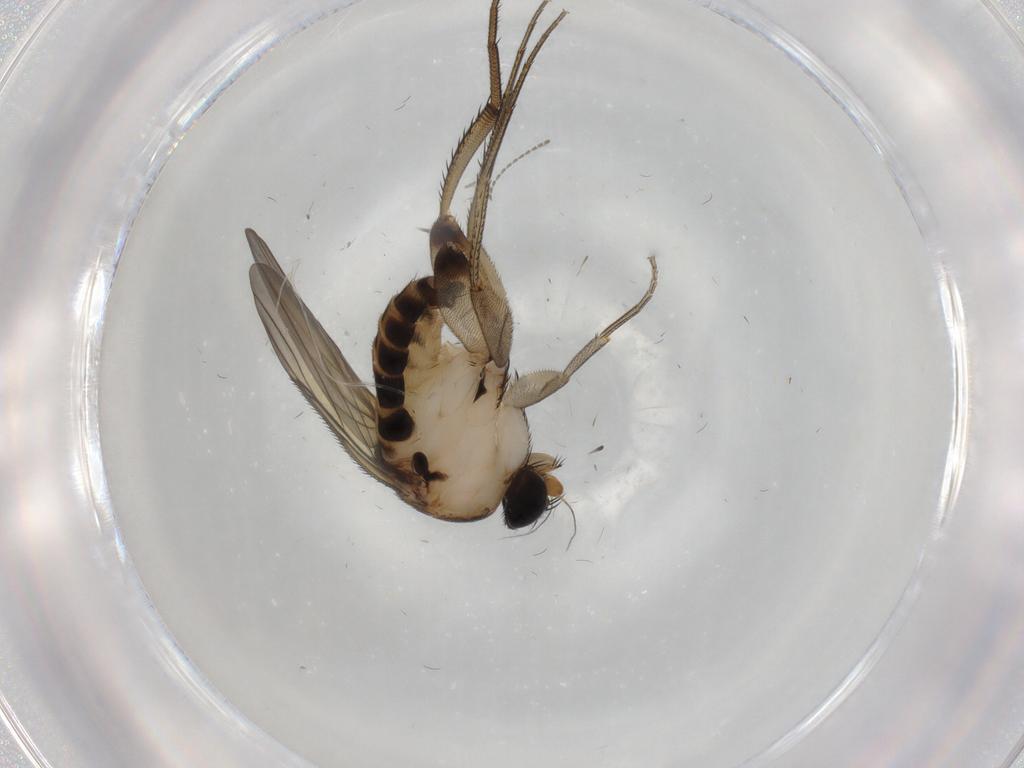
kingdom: Animalia
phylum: Arthropoda
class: Insecta
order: Diptera
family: Phoridae
